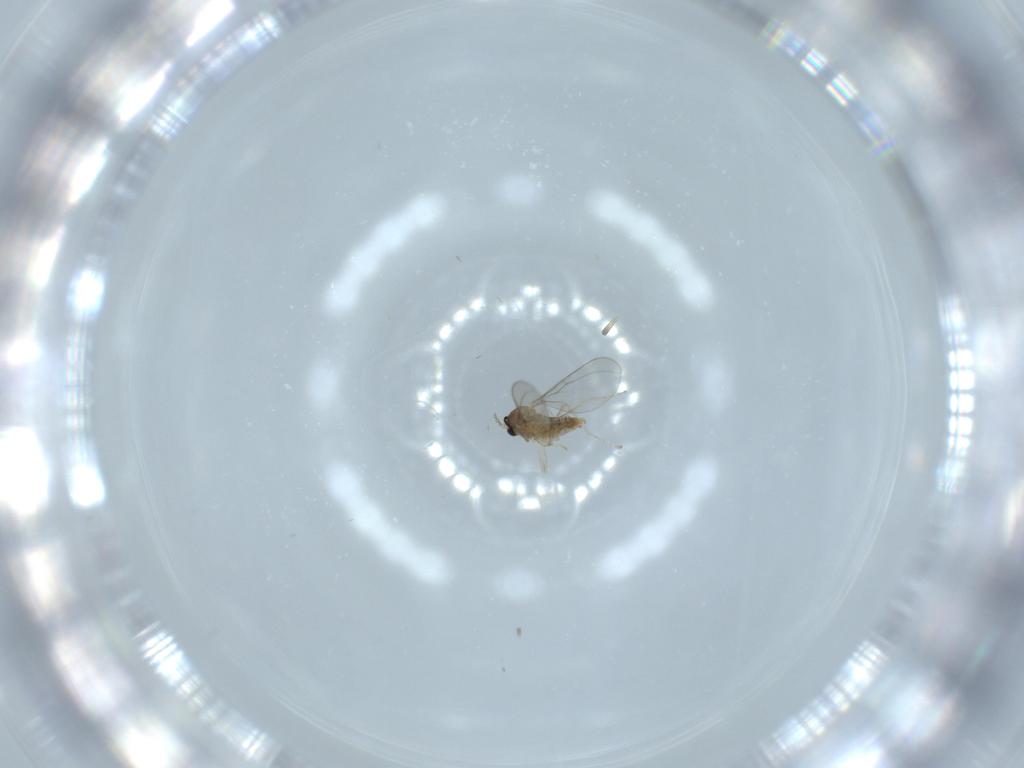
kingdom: Animalia
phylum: Arthropoda
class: Insecta
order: Diptera
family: Cecidomyiidae
